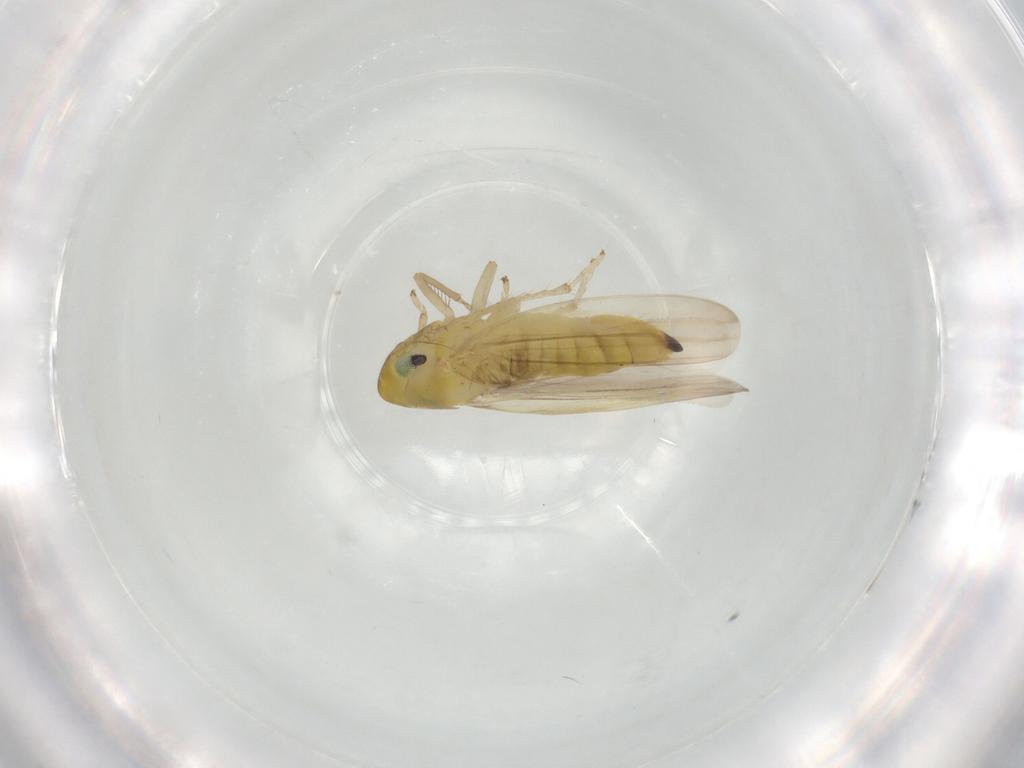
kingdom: Animalia
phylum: Arthropoda
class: Insecta
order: Hemiptera
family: Cicadellidae
